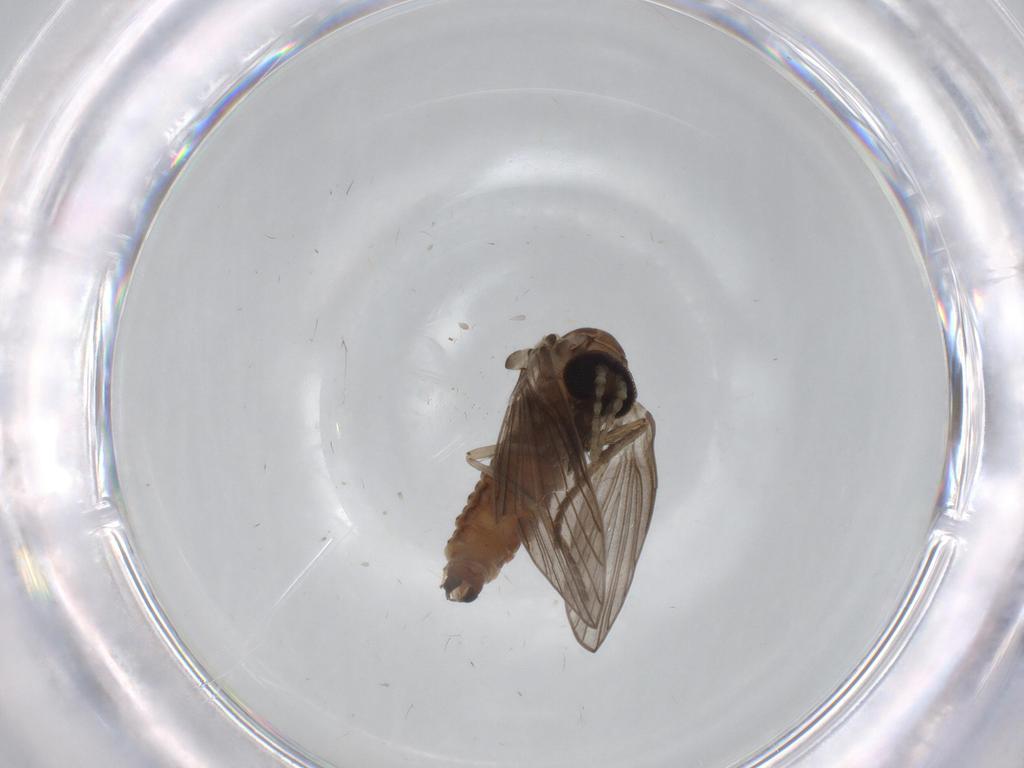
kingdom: Animalia
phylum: Arthropoda
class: Insecta
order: Diptera
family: Phoridae
